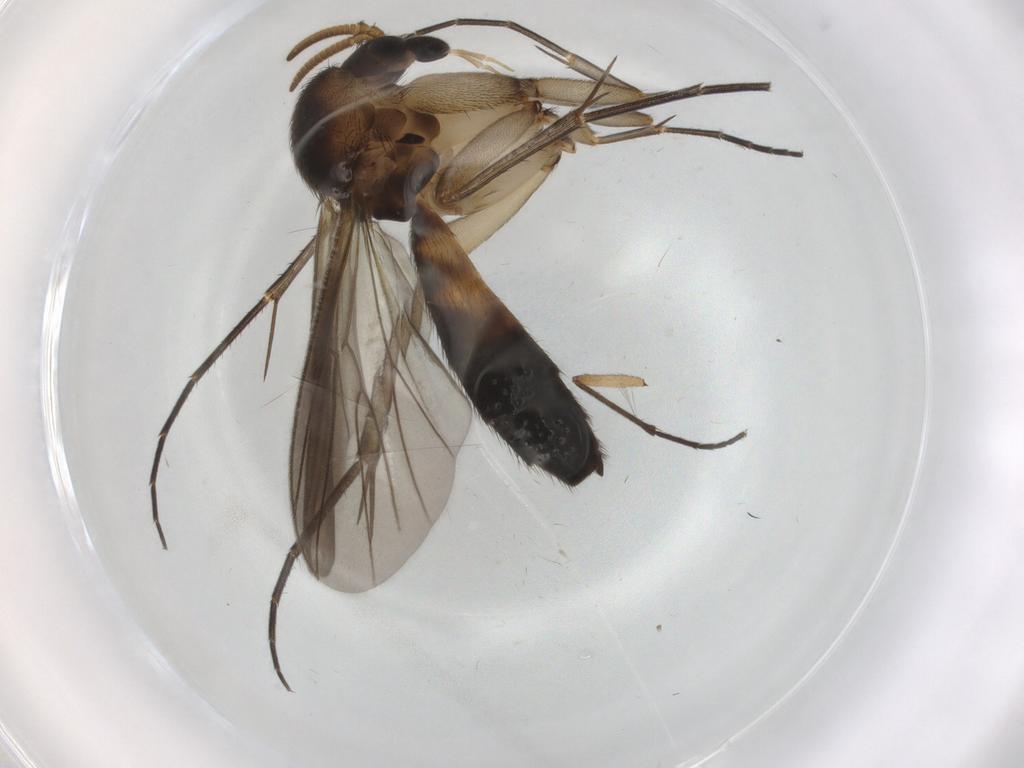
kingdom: Animalia
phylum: Arthropoda
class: Insecta
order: Diptera
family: Mycetophilidae
